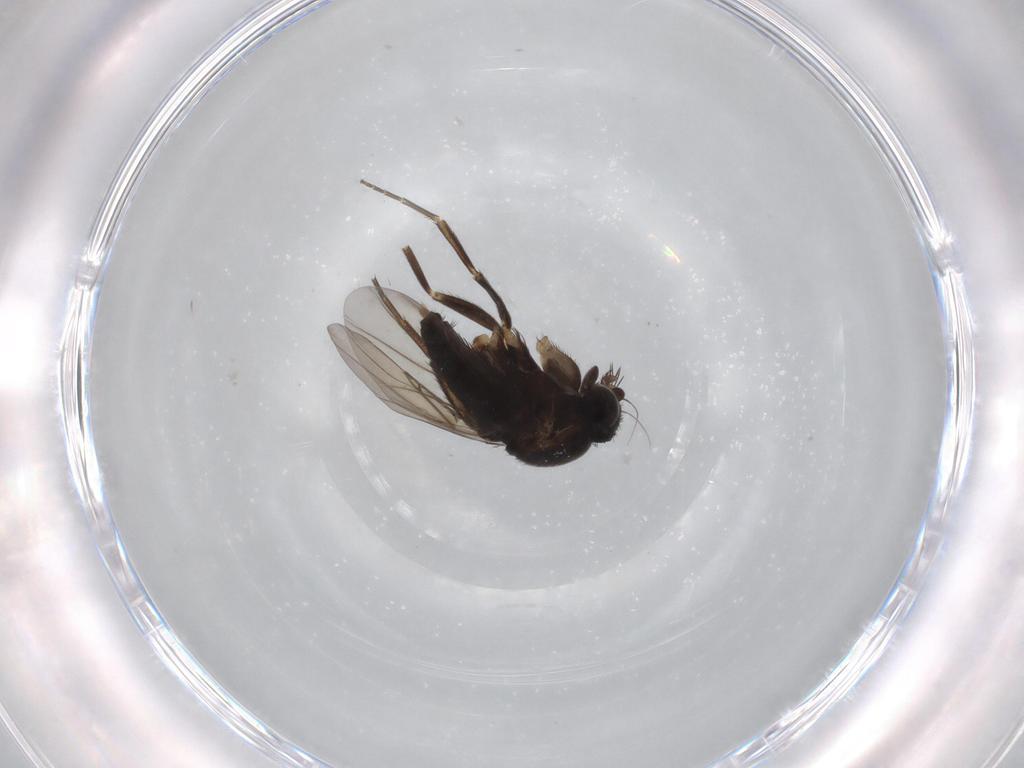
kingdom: Animalia
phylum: Arthropoda
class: Insecta
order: Diptera
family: Phoridae
